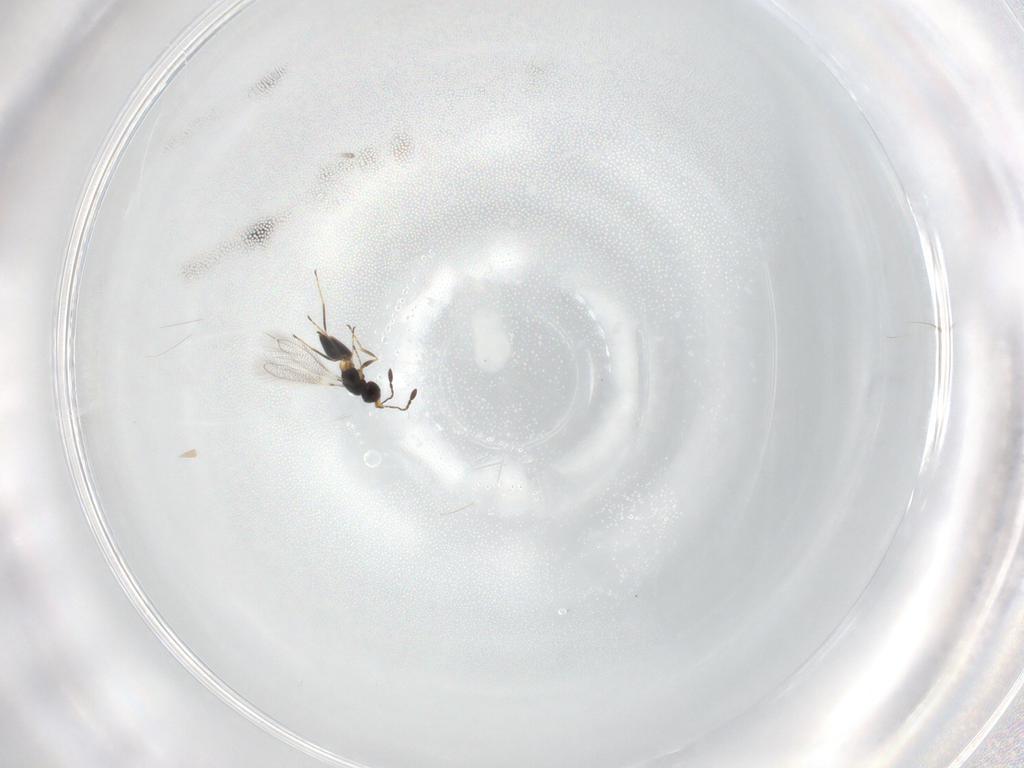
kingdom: Animalia
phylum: Arthropoda
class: Insecta
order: Hymenoptera
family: Mymaridae
